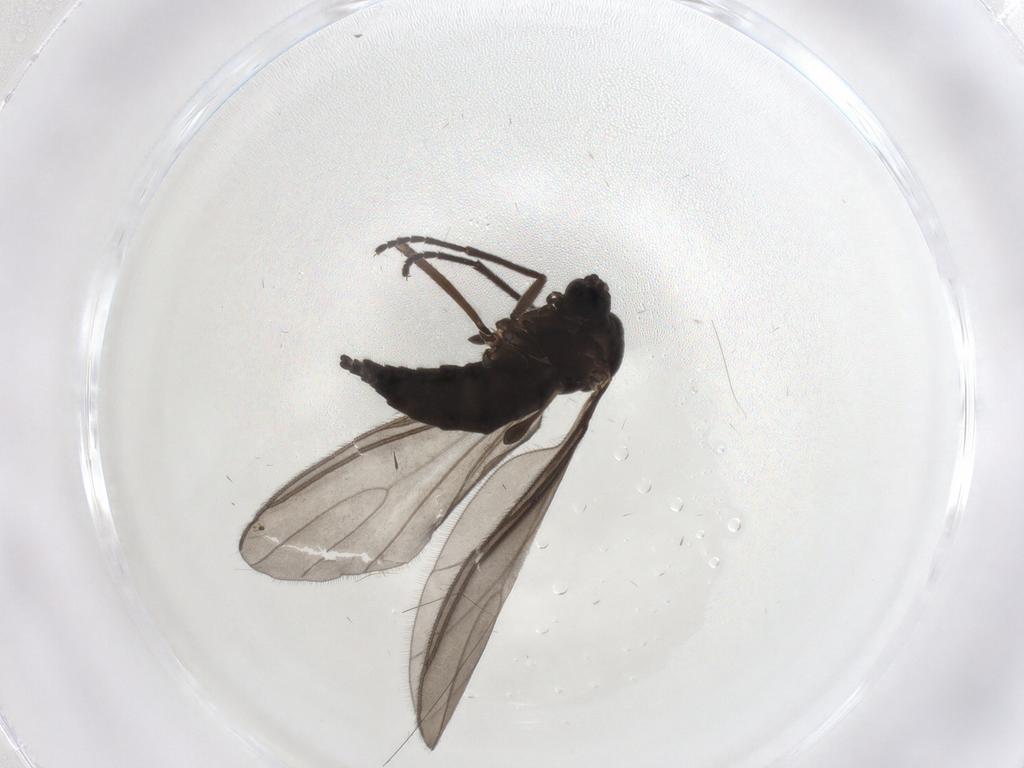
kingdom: Animalia
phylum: Arthropoda
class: Insecta
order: Diptera
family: Sciaridae
